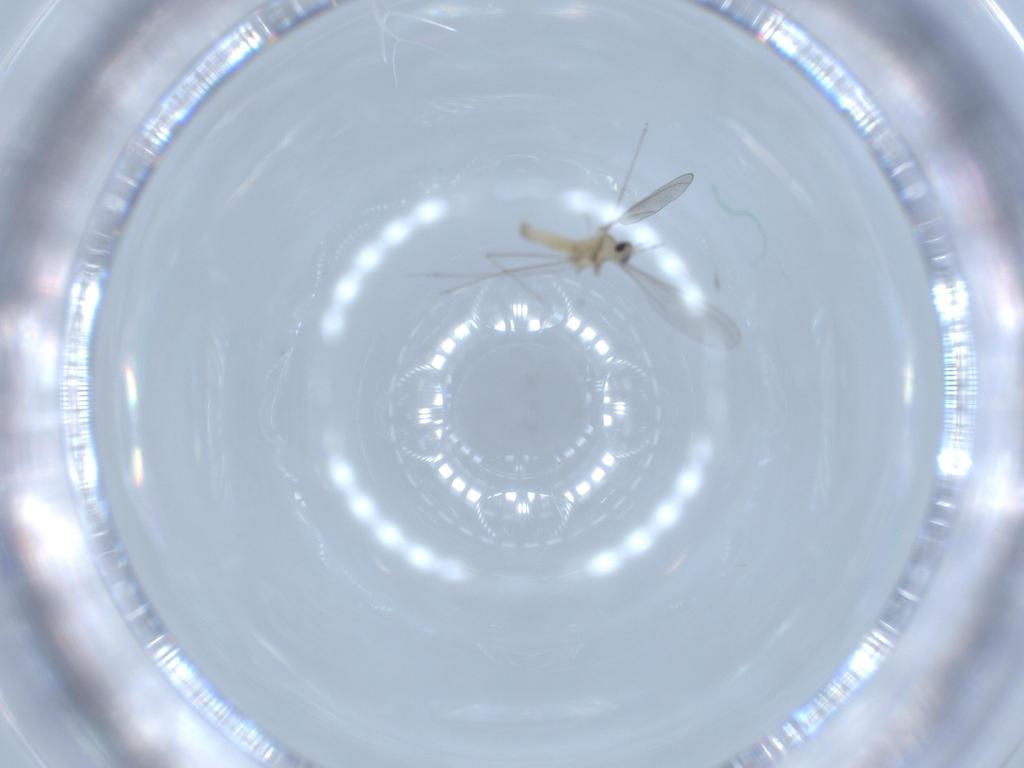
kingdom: Animalia
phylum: Arthropoda
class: Insecta
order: Diptera
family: Cecidomyiidae
